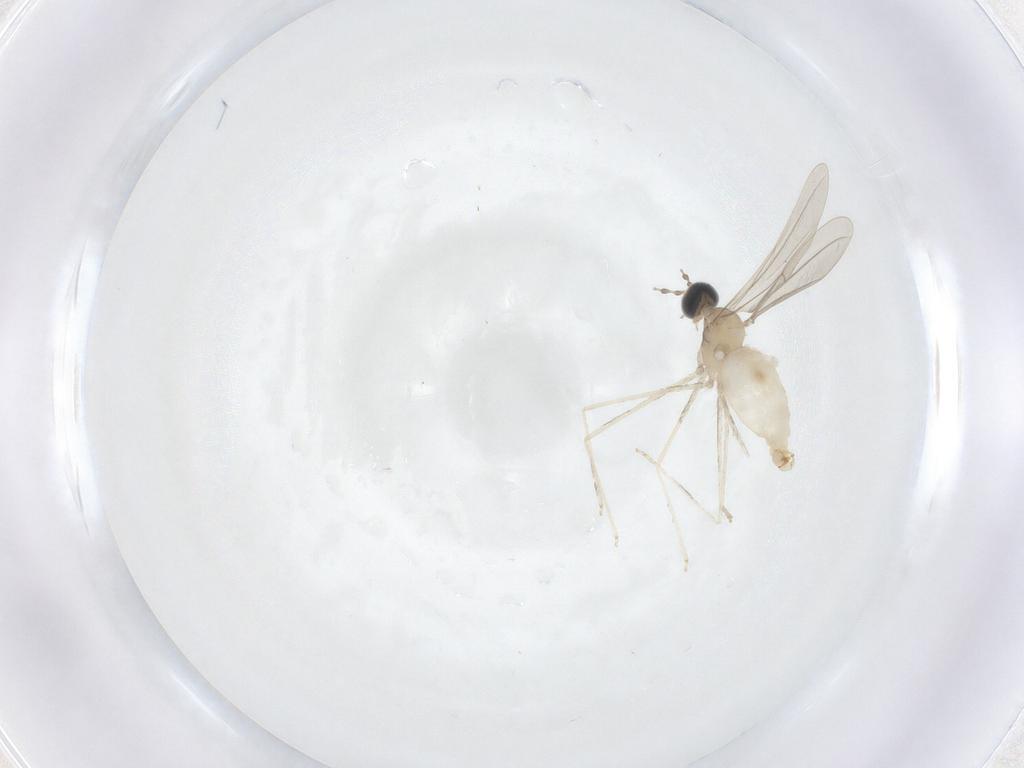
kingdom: Animalia
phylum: Arthropoda
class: Insecta
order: Diptera
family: Cecidomyiidae
